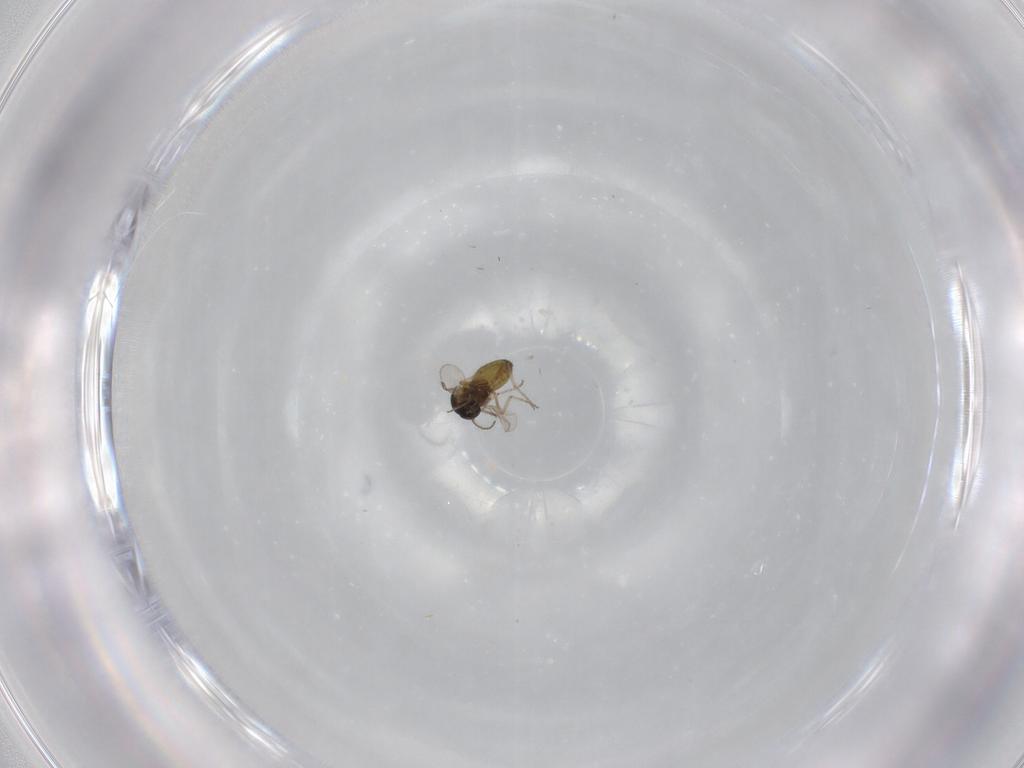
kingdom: Animalia
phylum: Arthropoda
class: Insecta
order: Diptera
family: Ceratopogonidae
